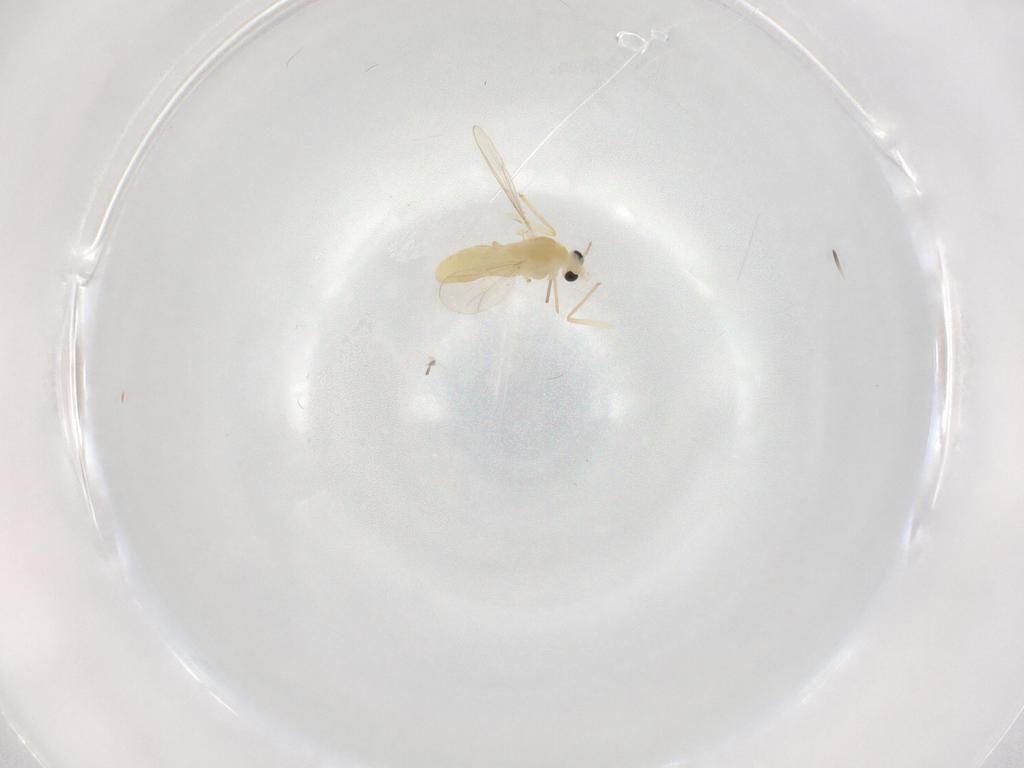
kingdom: Animalia
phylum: Arthropoda
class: Insecta
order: Diptera
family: Chironomidae
